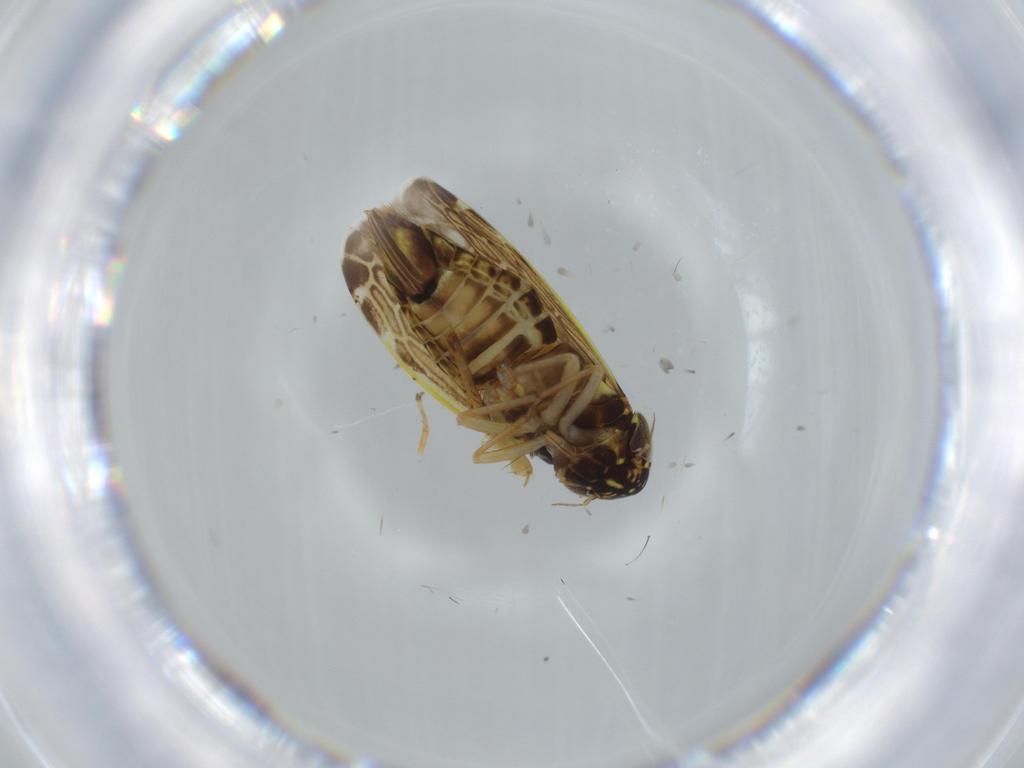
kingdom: Animalia
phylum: Arthropoda
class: Insecta
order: Hemiptera
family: Cicadellidae
